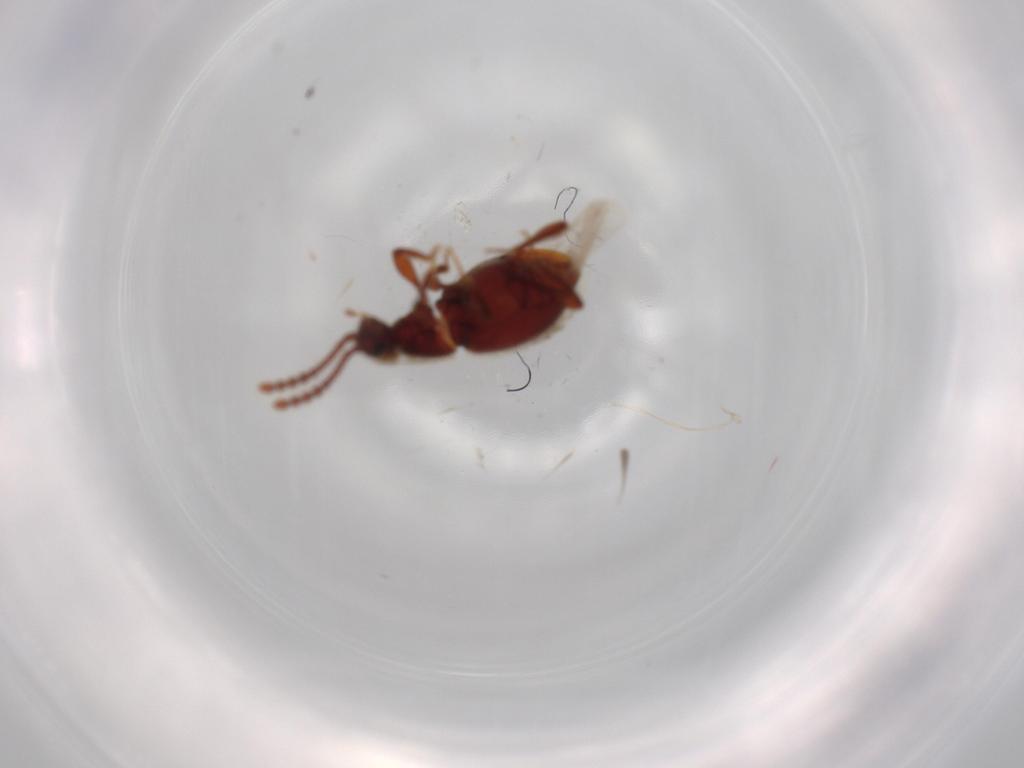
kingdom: Animalia
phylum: Arthropoda
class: Insecta
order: Coleoptera
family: Staphylinidae
